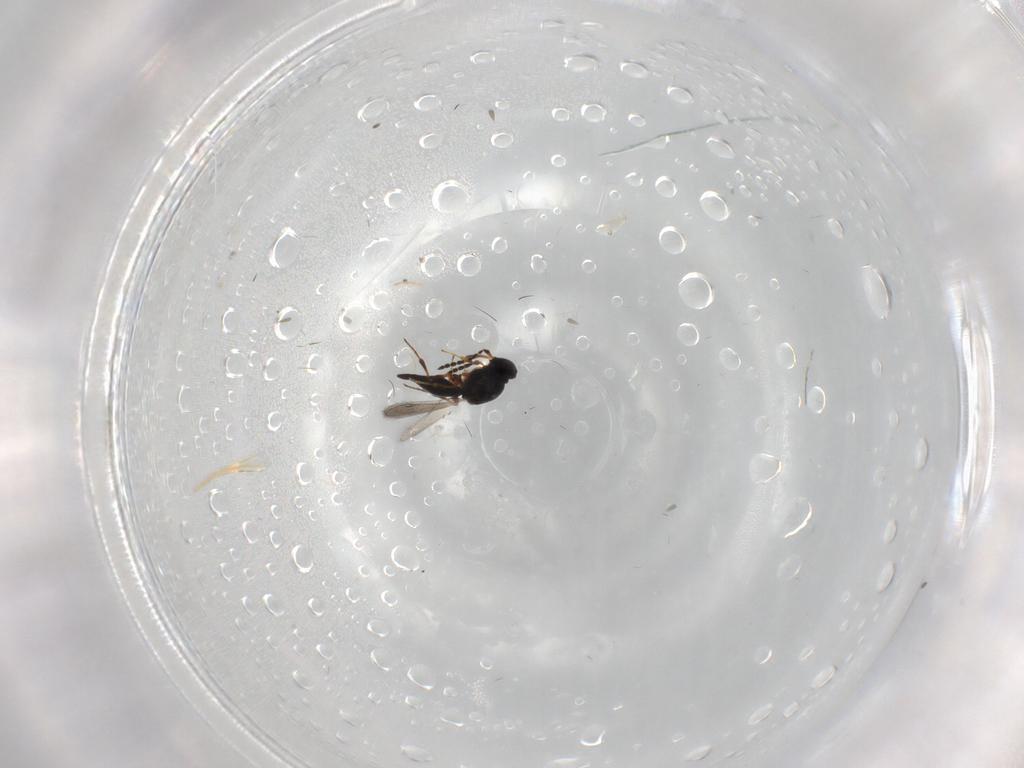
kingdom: Animalia
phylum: Arthropoda
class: Insecta
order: Hymenoptera
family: Platygastridae
